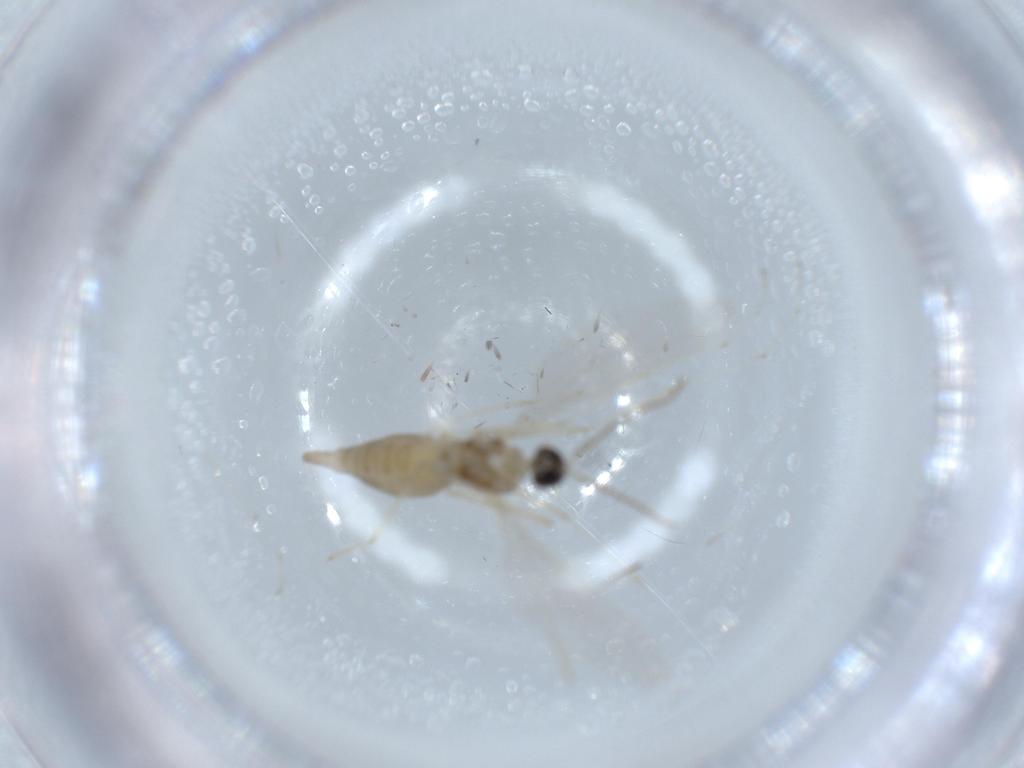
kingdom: Animalia
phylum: Arthropoda
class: Insecta
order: Diptera
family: Cecidomyiidae
